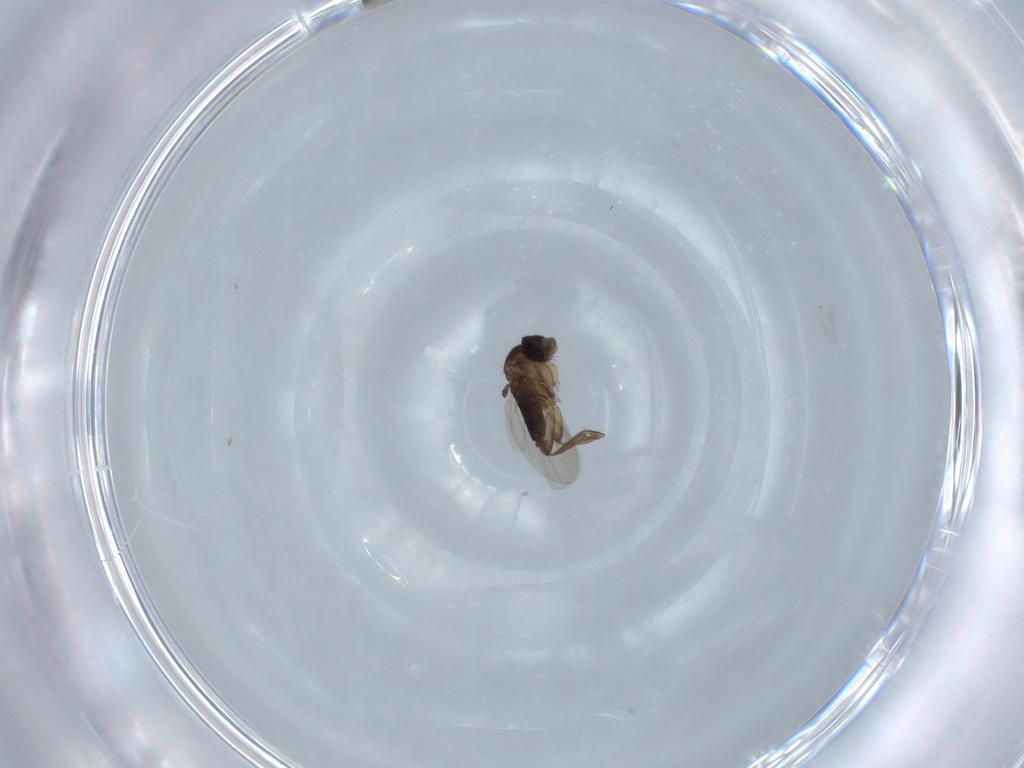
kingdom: Animalia
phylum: Arthropoda
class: Insecta
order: Diptera
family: Phoridae
